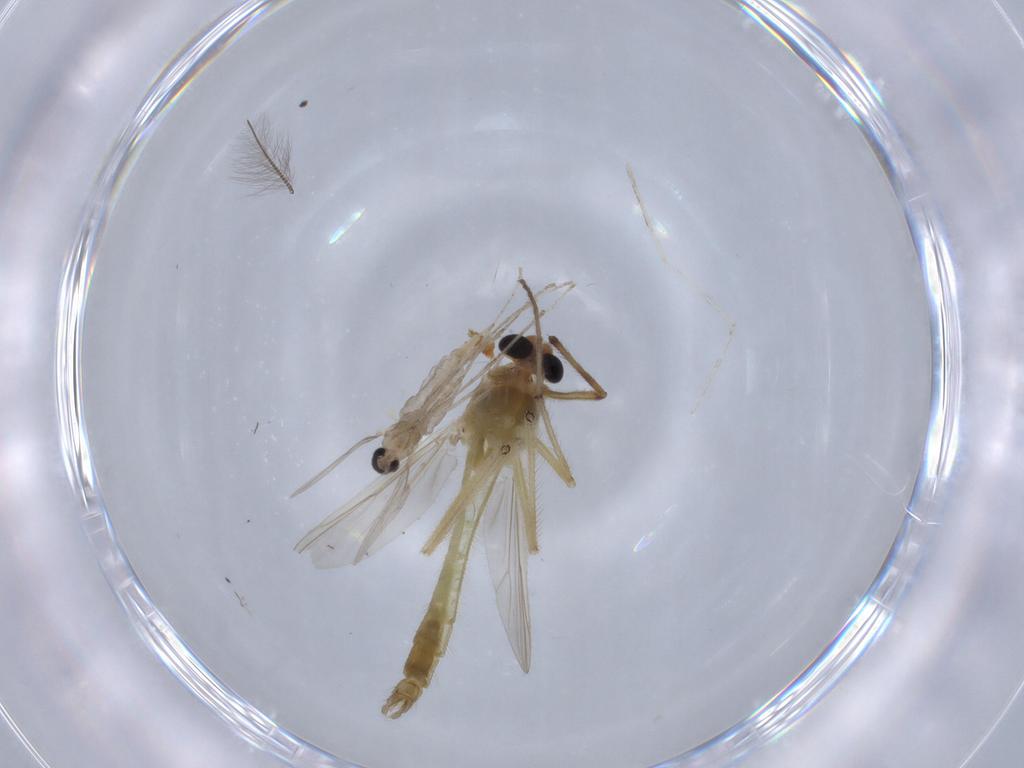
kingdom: Animalia
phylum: Arthropoda
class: Insecta
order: Diptera
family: Cecidomyiidae
